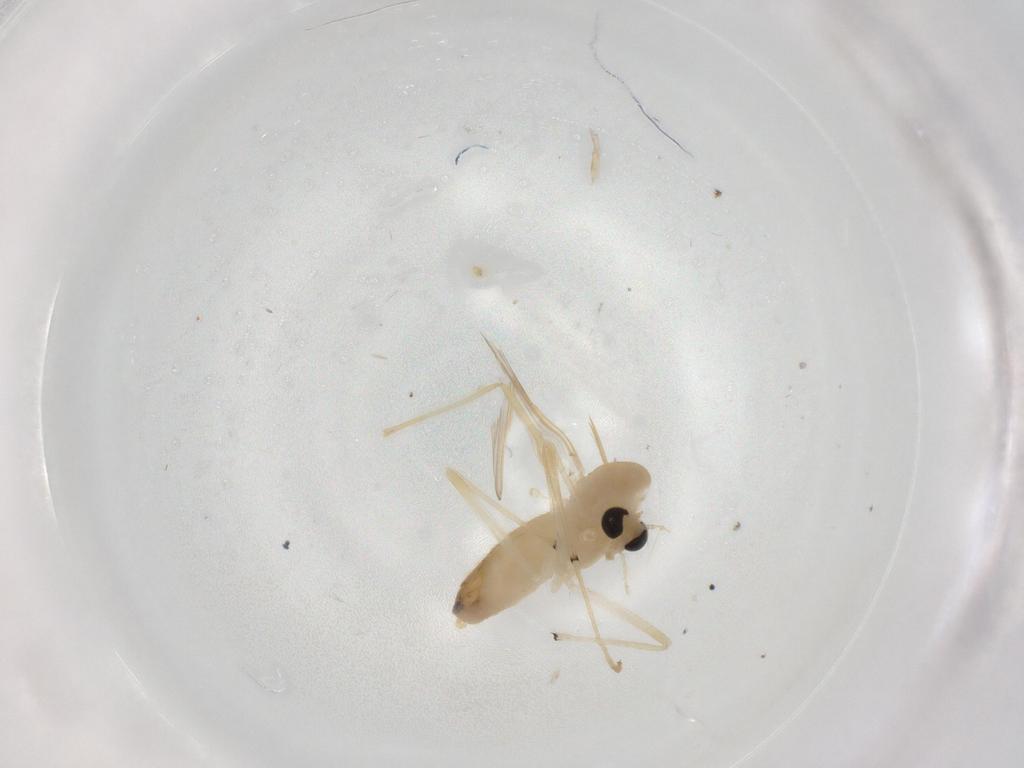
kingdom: Animalia
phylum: Arthropoda
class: Insecta
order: Diptera
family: Chironomidae
